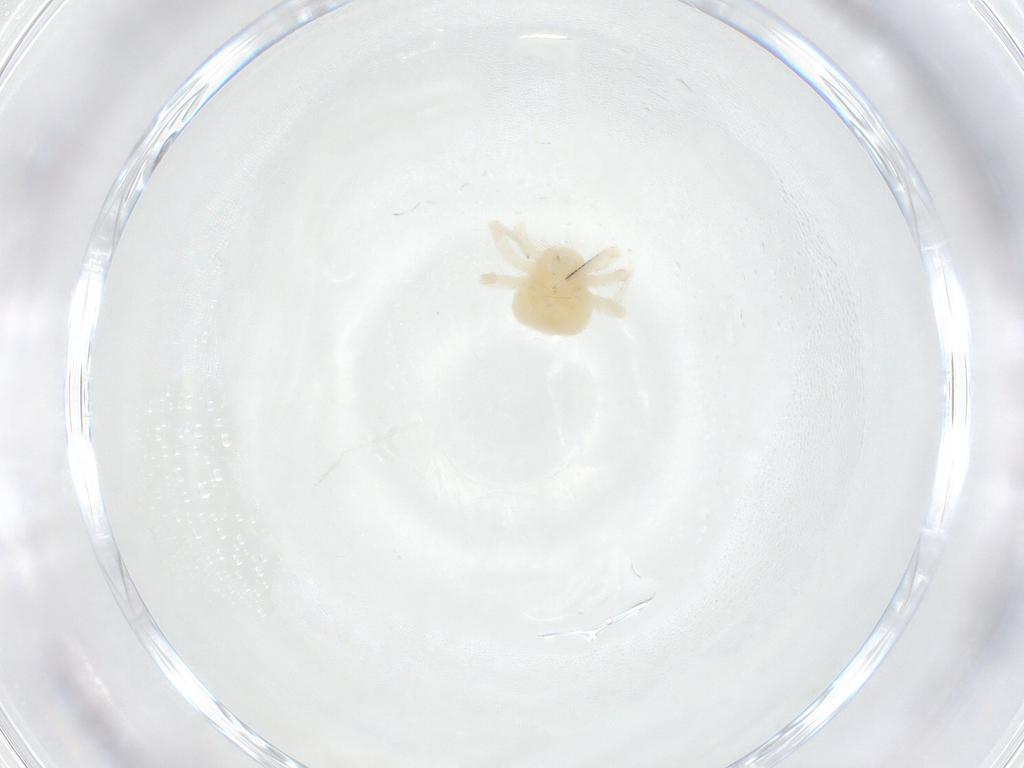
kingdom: Animalia
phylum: Arthropoda
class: Arachnida
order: Trombidiformes
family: Anystidae
